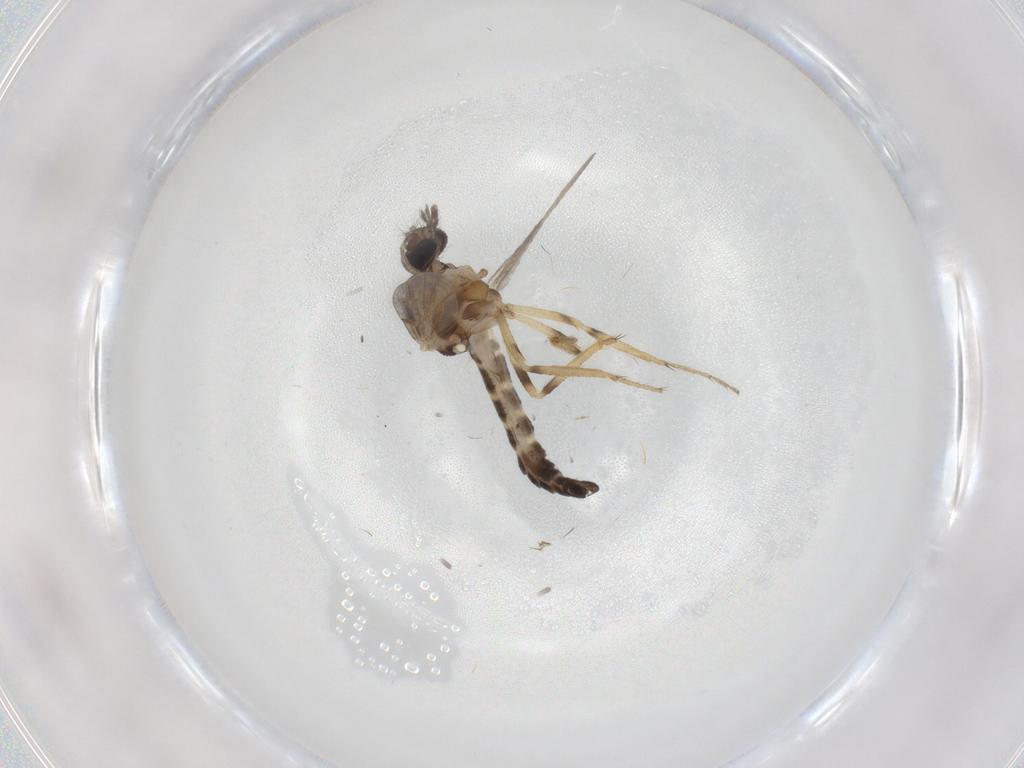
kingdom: Animalia
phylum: Arthropoda
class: Insecta
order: Diptera
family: Ceratopogonidae
